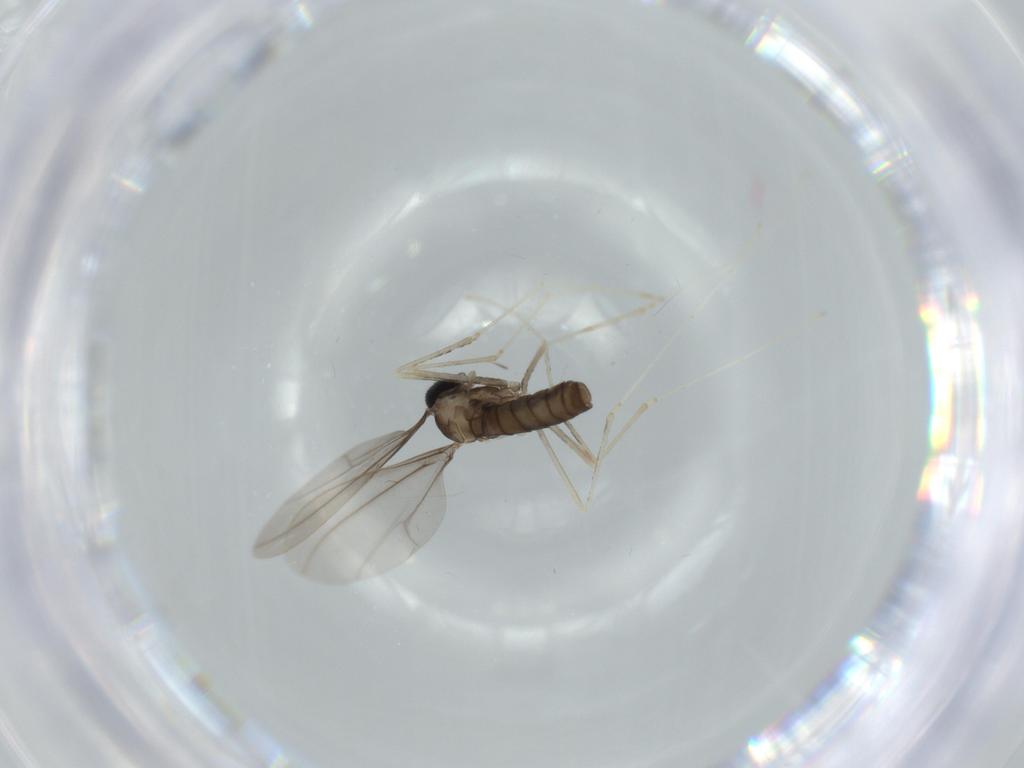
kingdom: Animalia
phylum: Arthropoda
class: Insecta
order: Diptera
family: Cecidomyiidae
